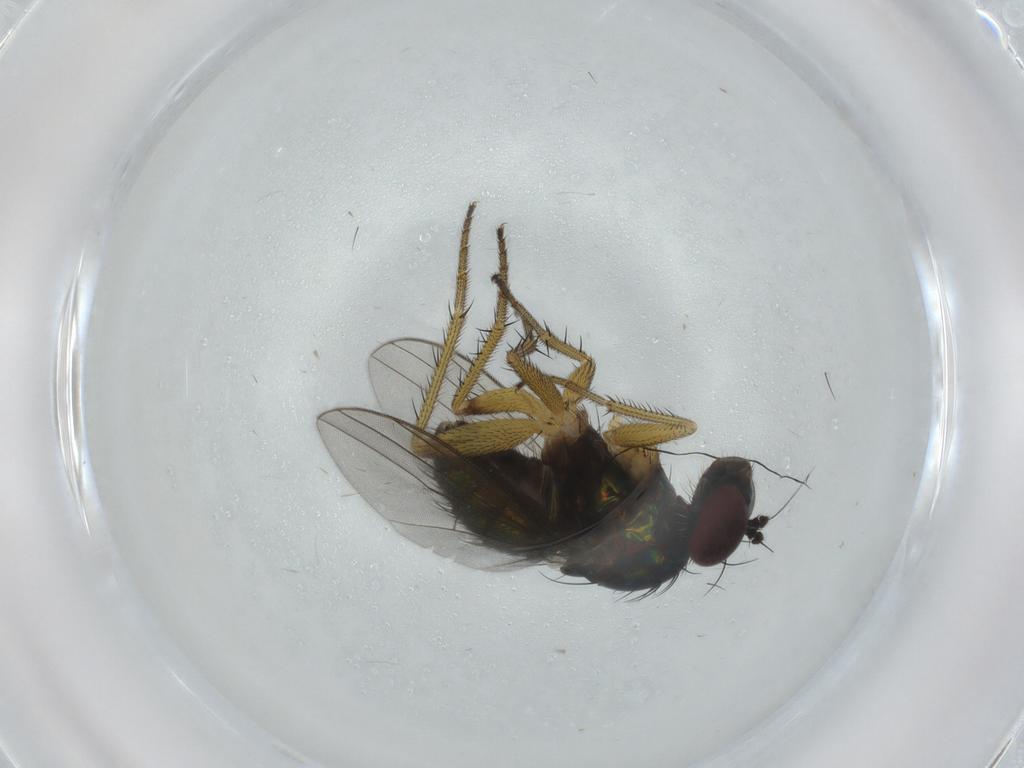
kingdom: Animalia
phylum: Arthropoda
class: Insecta
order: Diptera
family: Dolichopodidae
